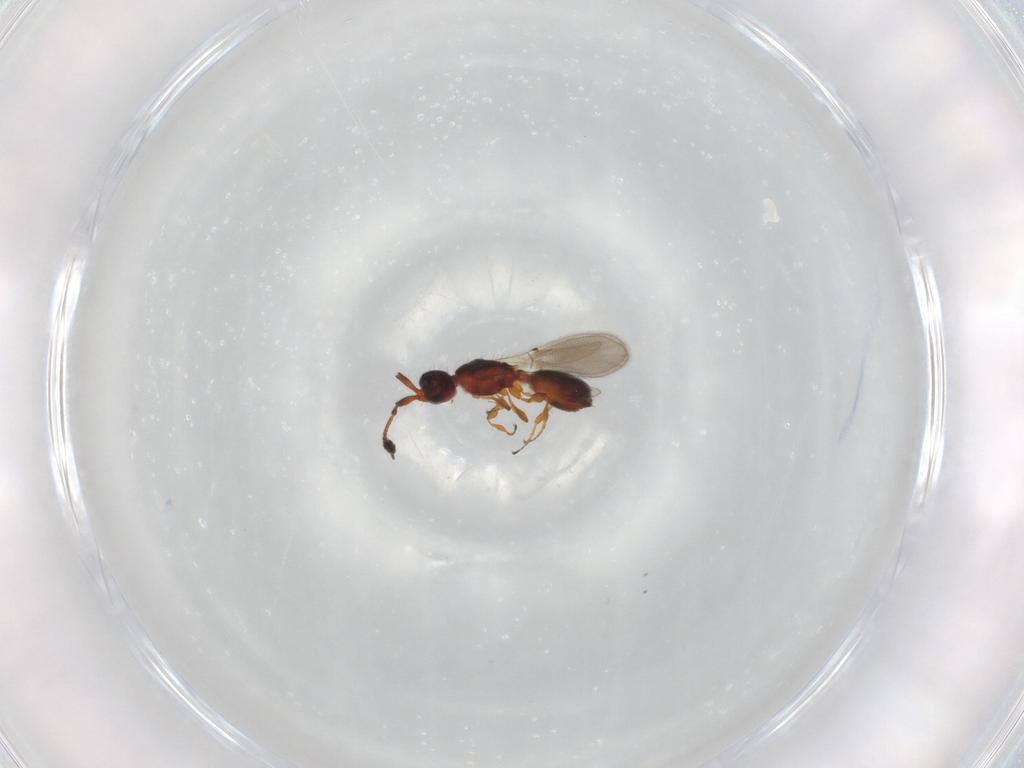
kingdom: Animalia
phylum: Arthropoda
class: Insecta
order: Hymenoptera
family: Diapriidae
